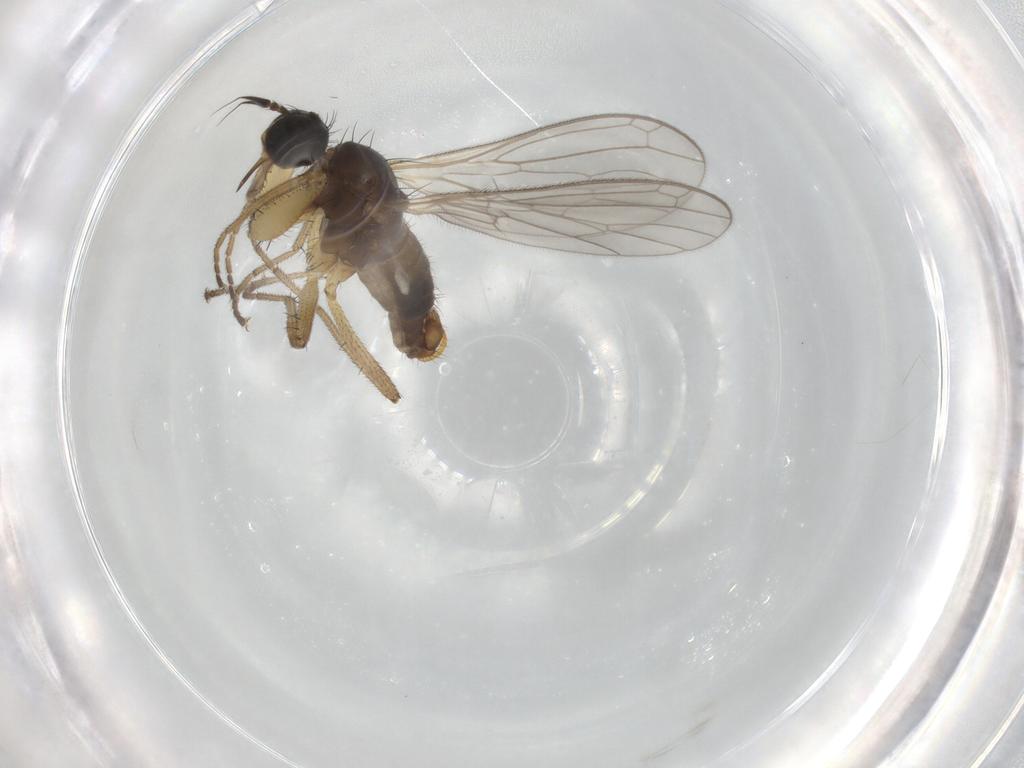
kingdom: Animalia
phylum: Arthropoda
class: Insecta
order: Diptera
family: Empididae
